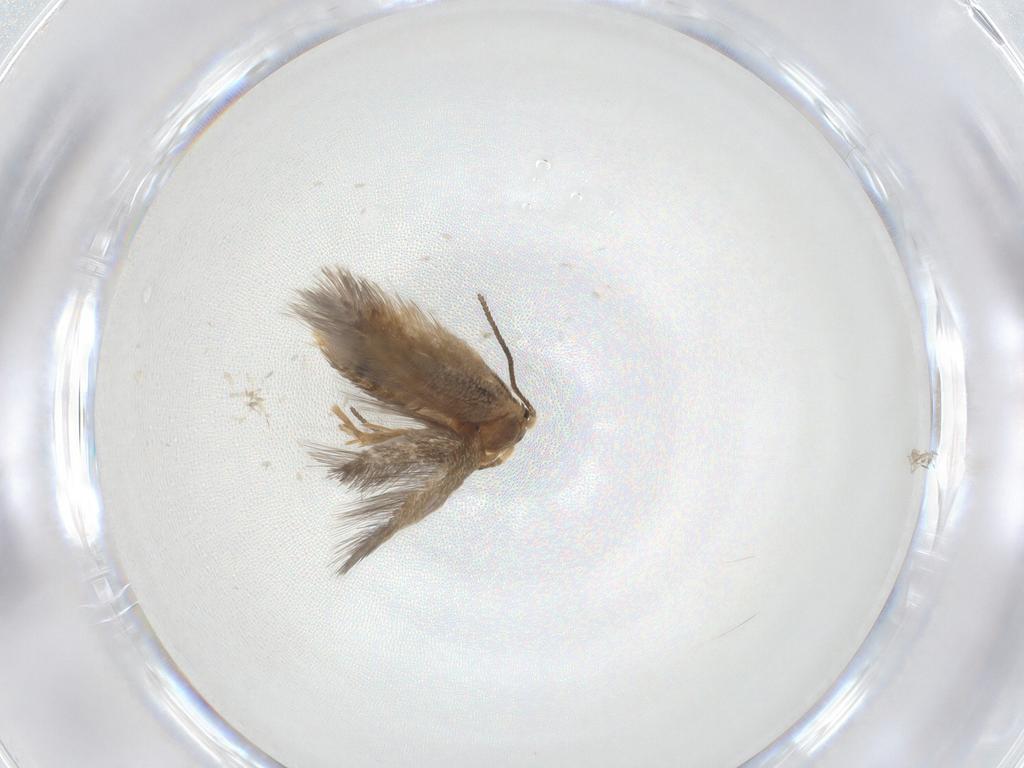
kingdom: Animalia
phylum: Arthropoda
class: Insecta
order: Lepidoptera
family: Nepticulidae
